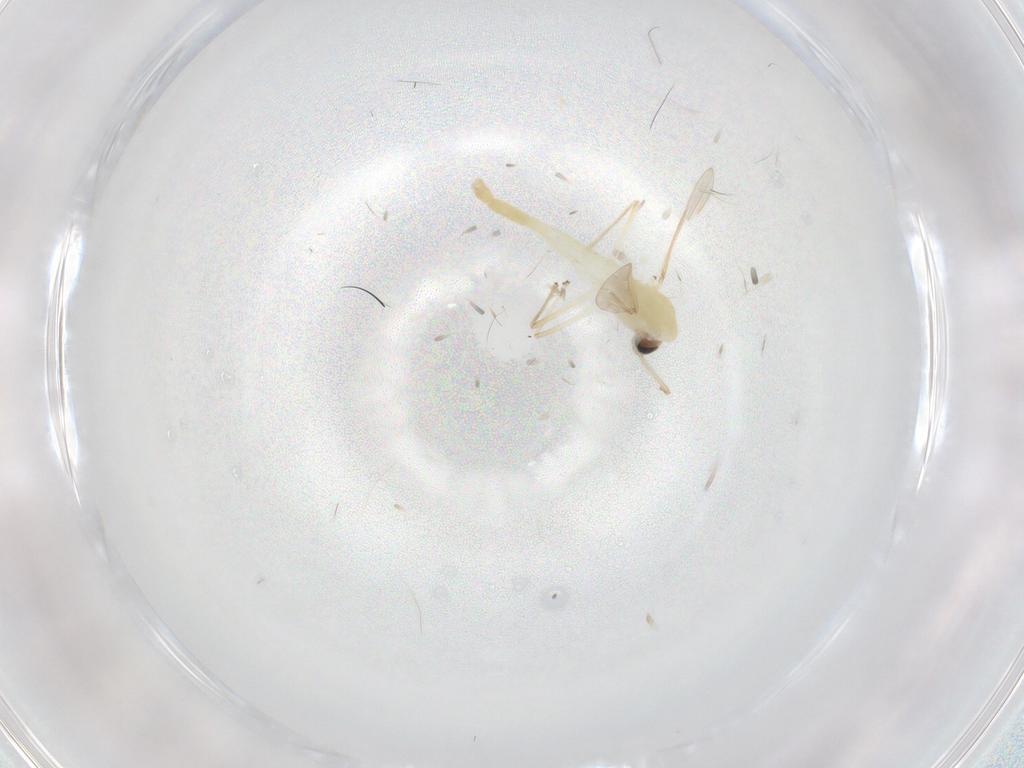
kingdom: Animalia
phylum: Arthropoda
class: Insecta
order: Diptera
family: Chironomidae
